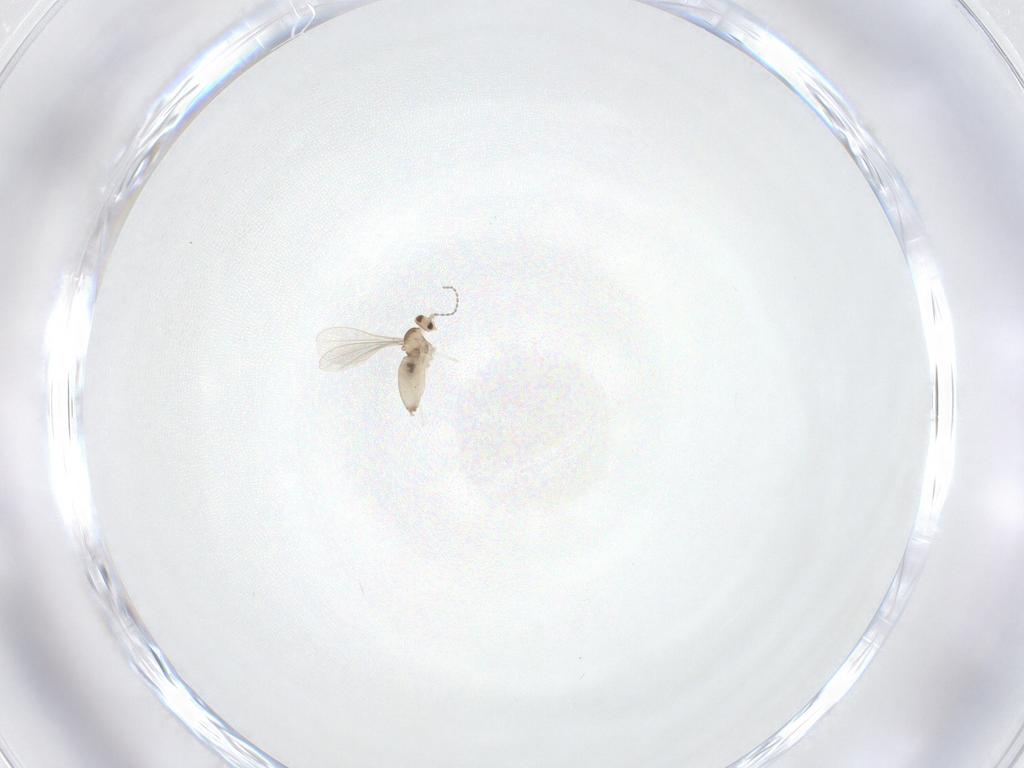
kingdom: Animalia
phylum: Arthropoda
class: Insecta
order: Diptera
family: Cecidomyiidae
